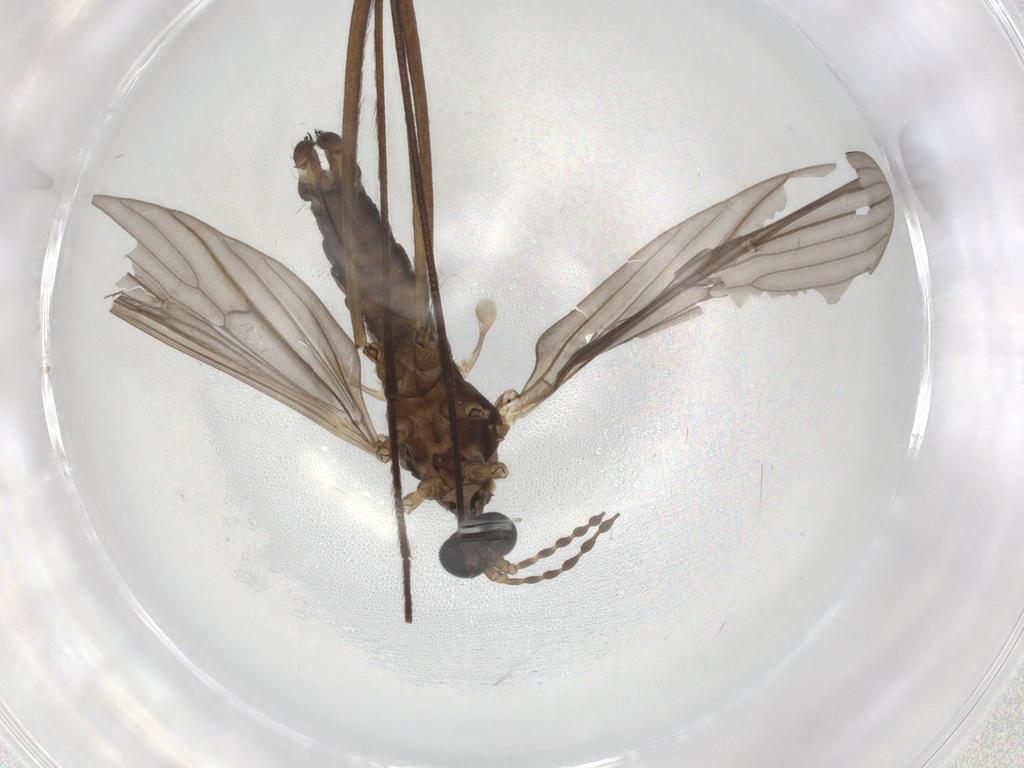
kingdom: Animalia
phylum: Arthropoda
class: Insecta
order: Diptera
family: Limoniidae
